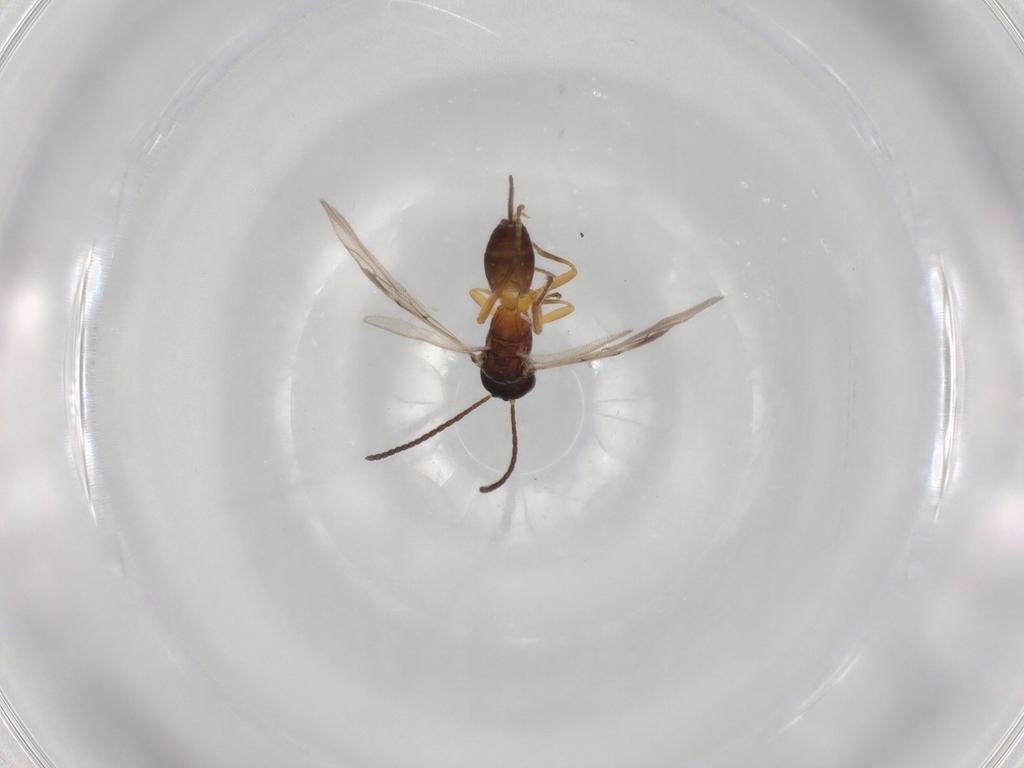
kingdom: Animalia
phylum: Arthropoda
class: Insecta
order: Hymenoptera
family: Braconidae
